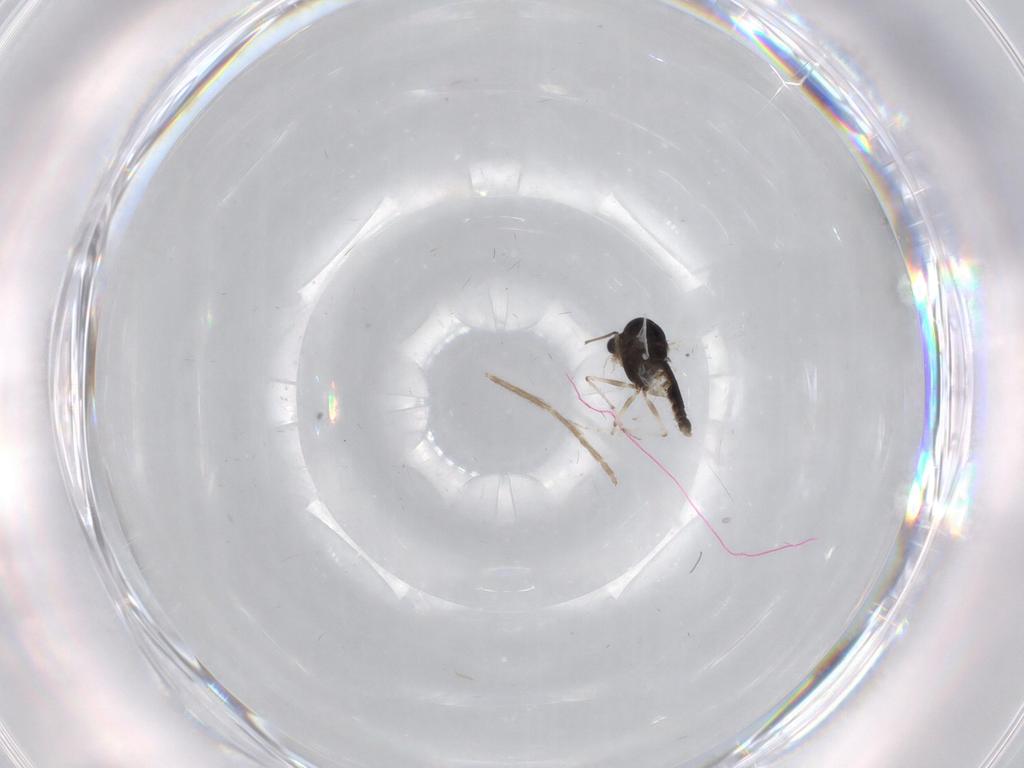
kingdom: Animalia
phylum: Arthropoda
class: Insecta
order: Diptera
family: Chironomidae
